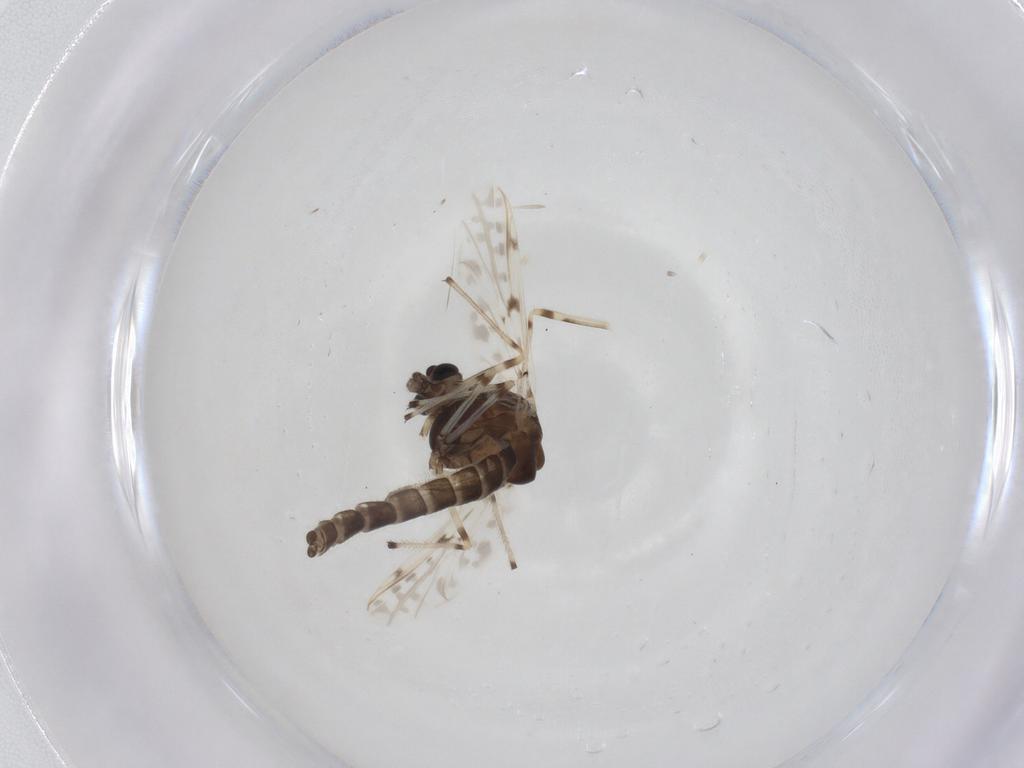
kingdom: Animalia
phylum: Arthropoda
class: Insecta
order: Diptera
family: Chironomidae
